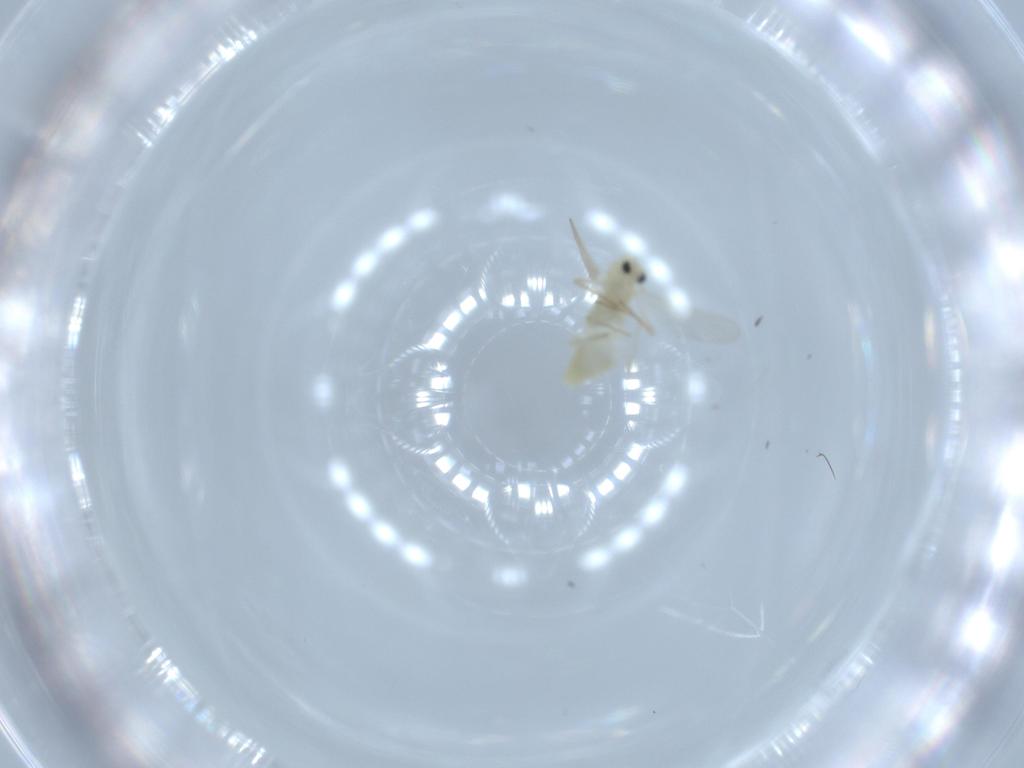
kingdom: Animalia
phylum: Arthropoda
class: Insecta
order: Diptera
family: Chironomidae
